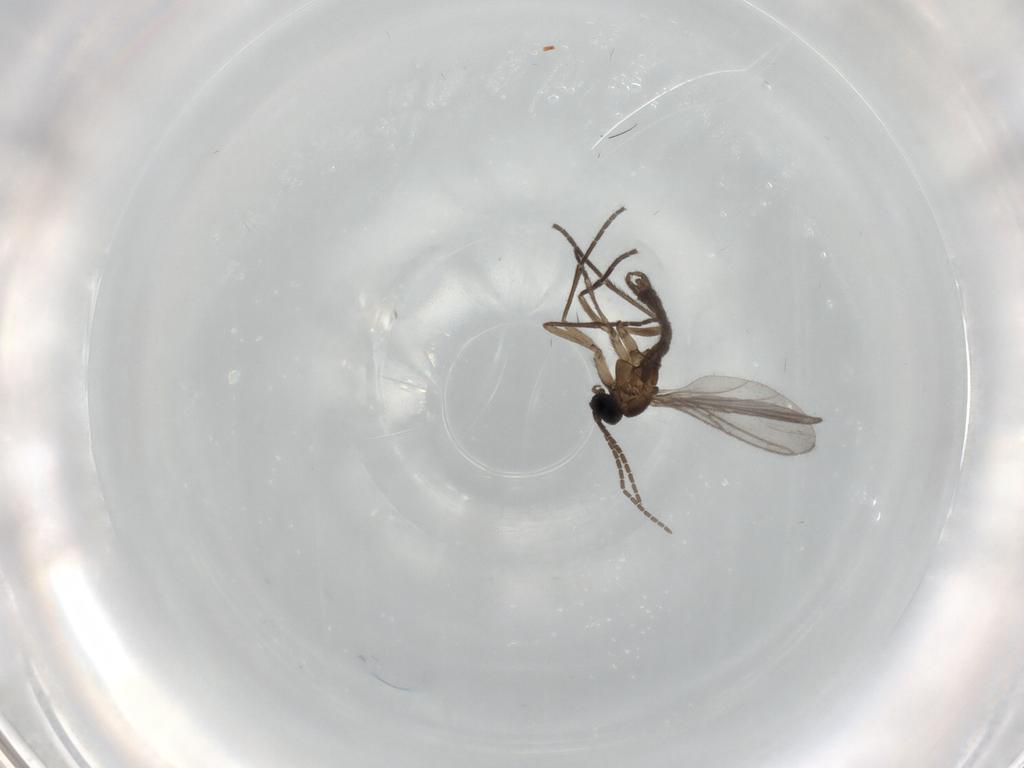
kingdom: Animalia
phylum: Arthropoda
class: Insecta
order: Diptera
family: Sciaridae
